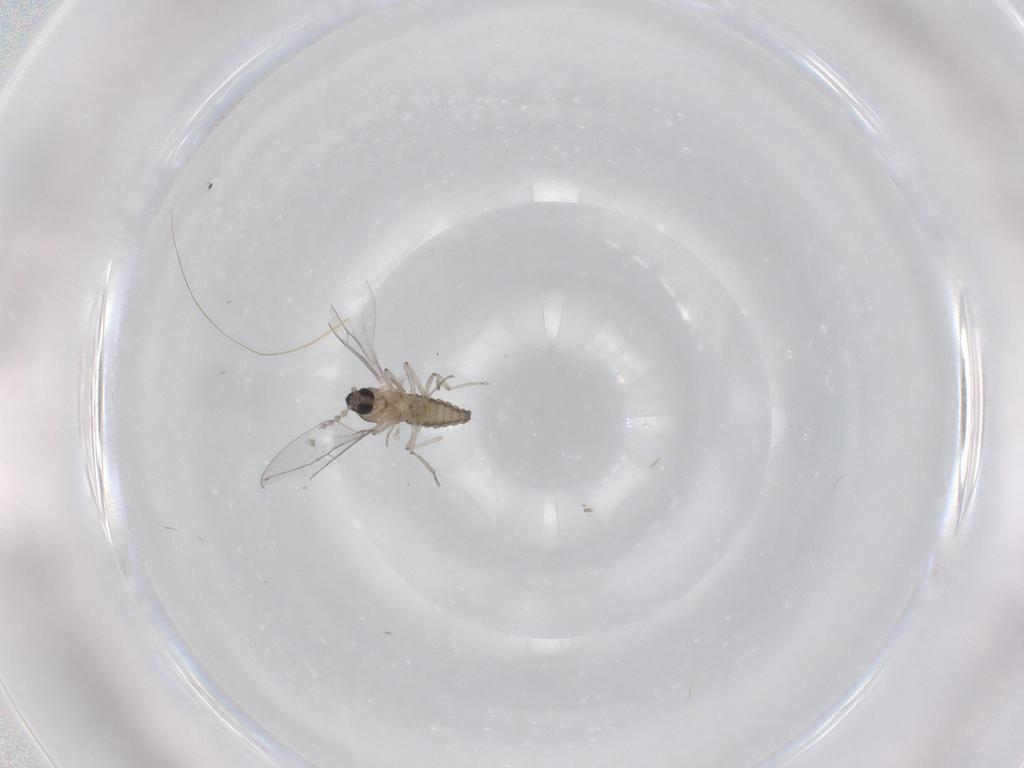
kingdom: Animalia
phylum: Arthropoda
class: Insecta
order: Diptera
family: Cecidomyiidae
